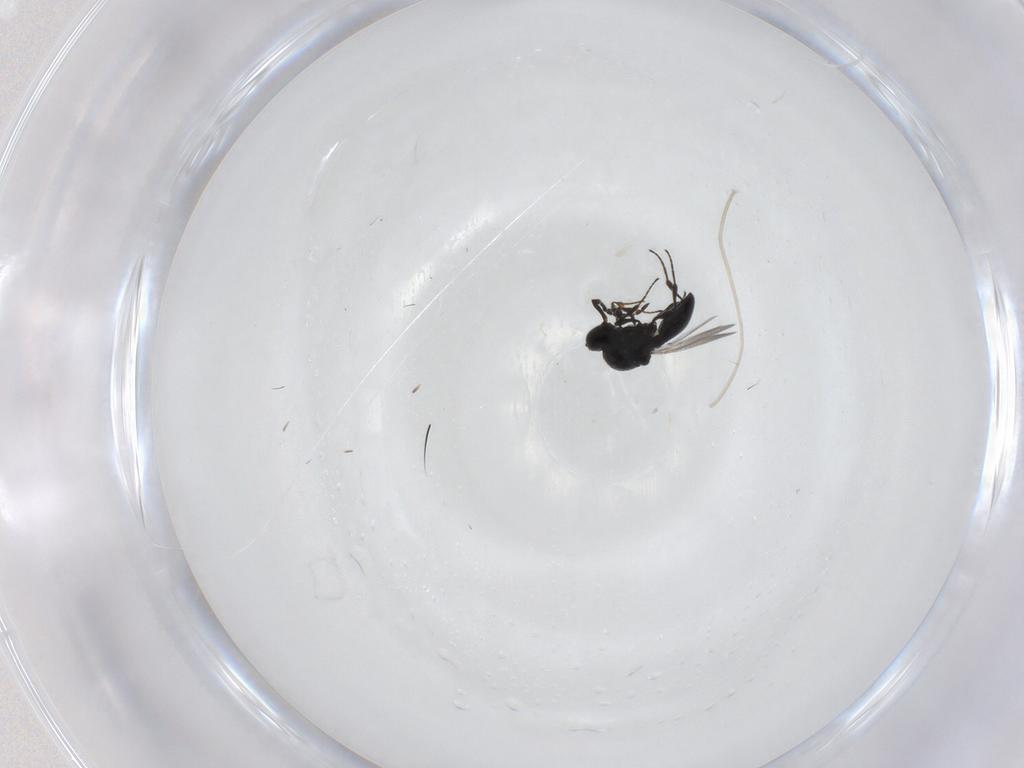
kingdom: Animalia
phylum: Arthropoda
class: Insecta
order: Hymenoptera
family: Platygastridae
